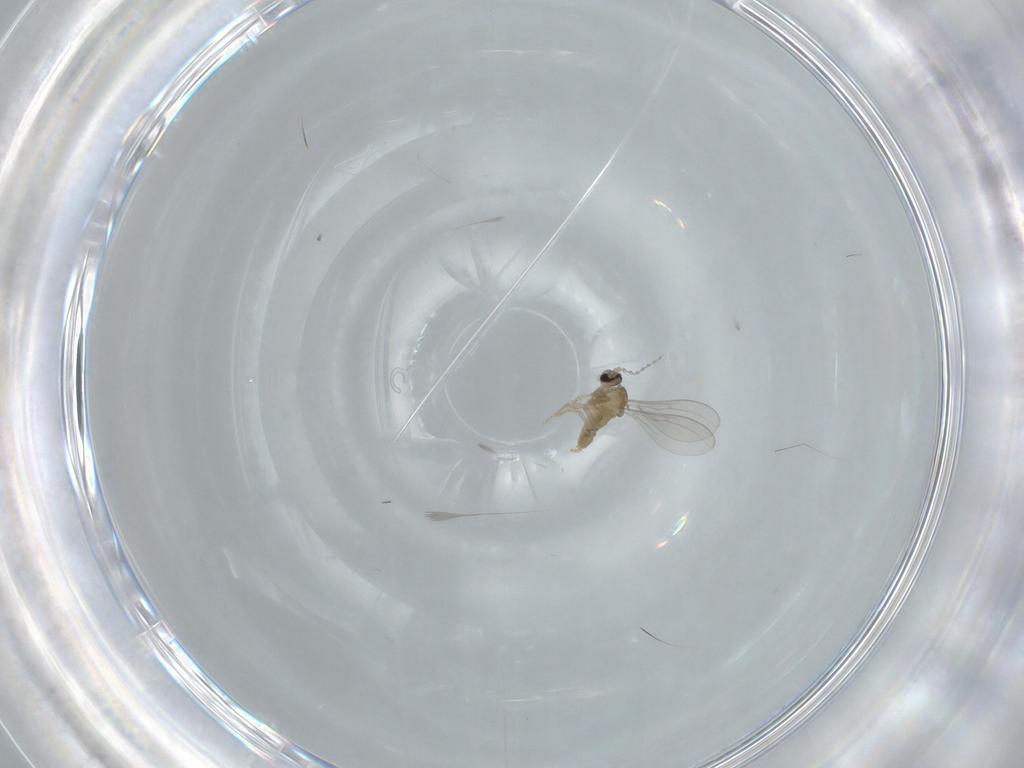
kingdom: Animalia
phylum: Arthropoda
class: Insecta
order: Diptera
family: Cecidomyiidae
